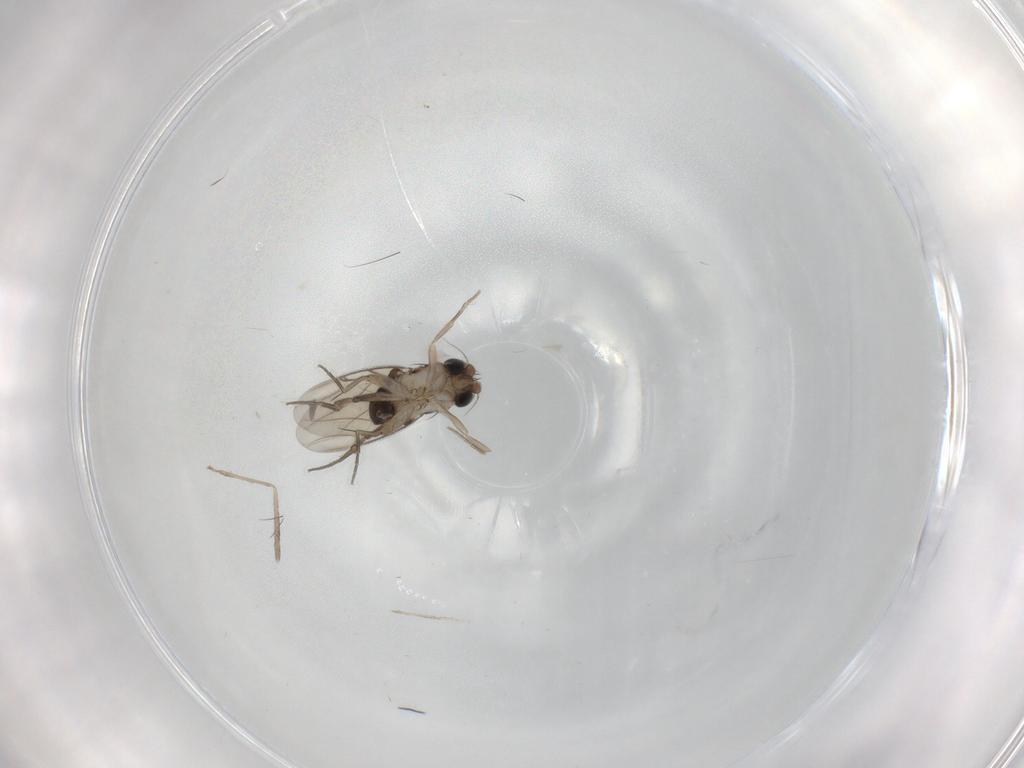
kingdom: Animalia
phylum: Arthropoda
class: Insecta
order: Diptera
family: Phoridae
